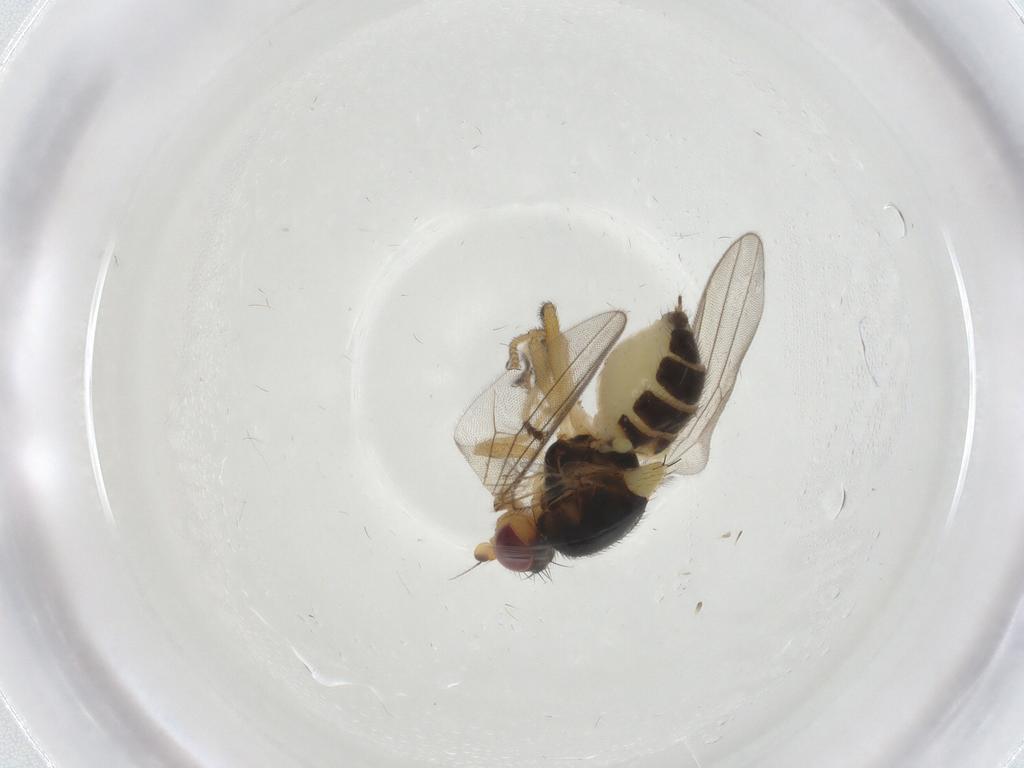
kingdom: Animalia
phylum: Arthropoda
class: Insecta
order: Diptera
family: Chloropidae
